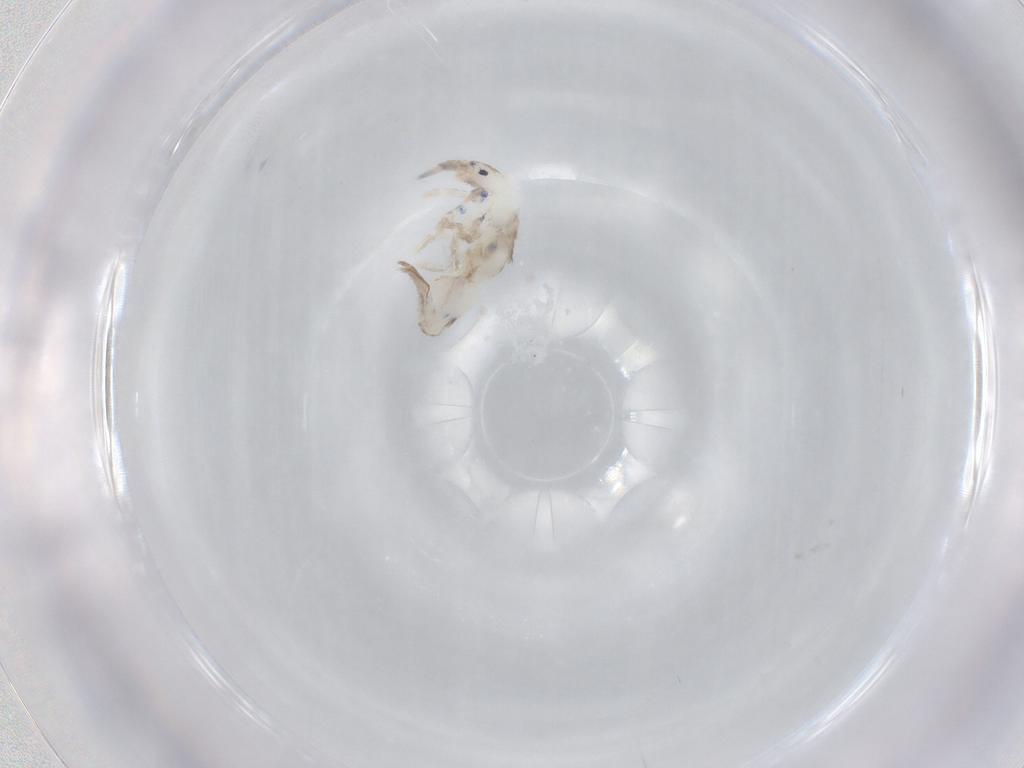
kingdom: Animalia
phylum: Arthropoda
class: Collembola
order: Entomobryomorpha
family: Entomobryidae
